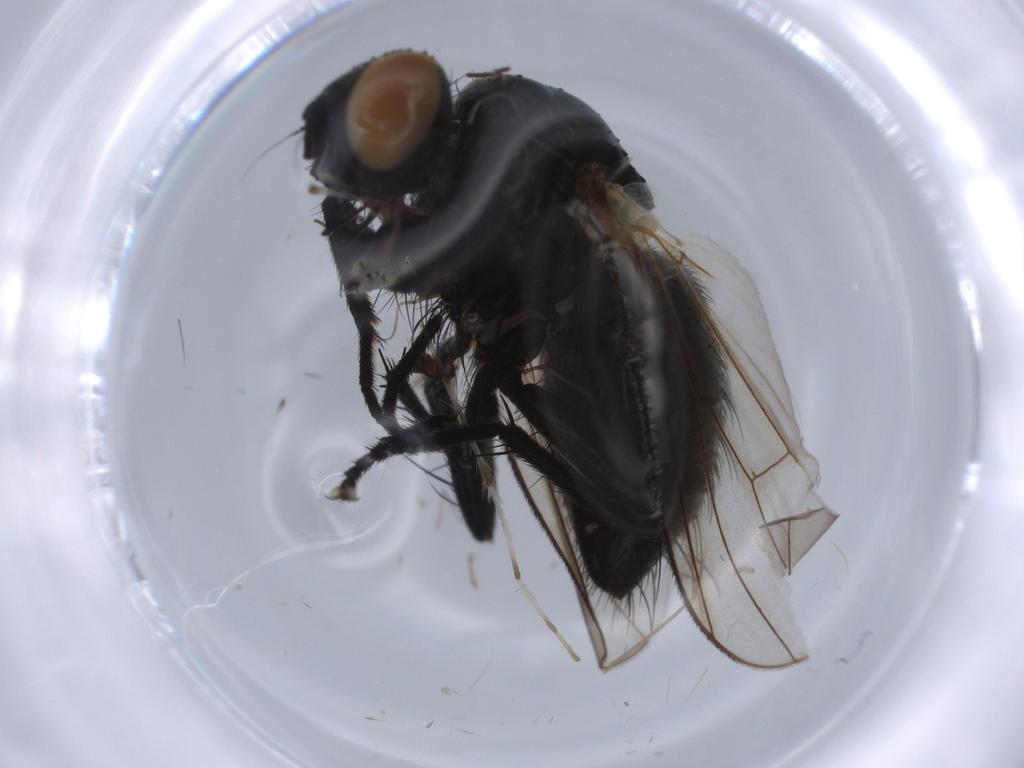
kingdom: Animalia
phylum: Arthropoda
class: Insecta
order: Diptera
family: Muscidae
